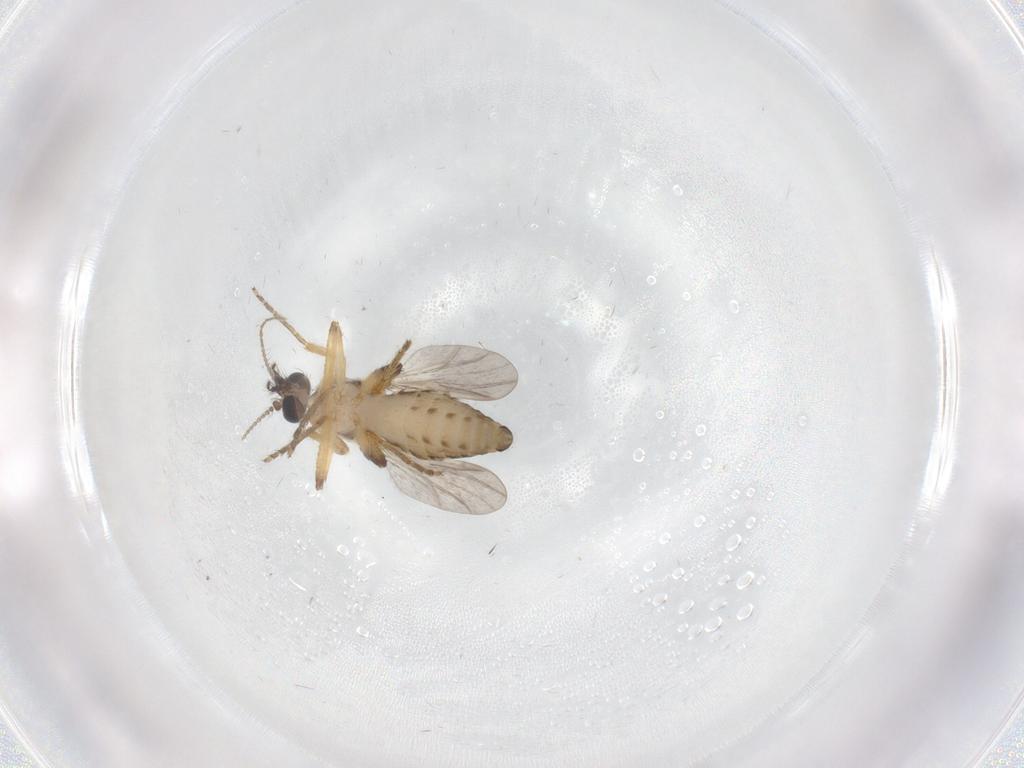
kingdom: Animalia
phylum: Arthropoda
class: Insecta
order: Diptera
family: Ceratopogonidae
